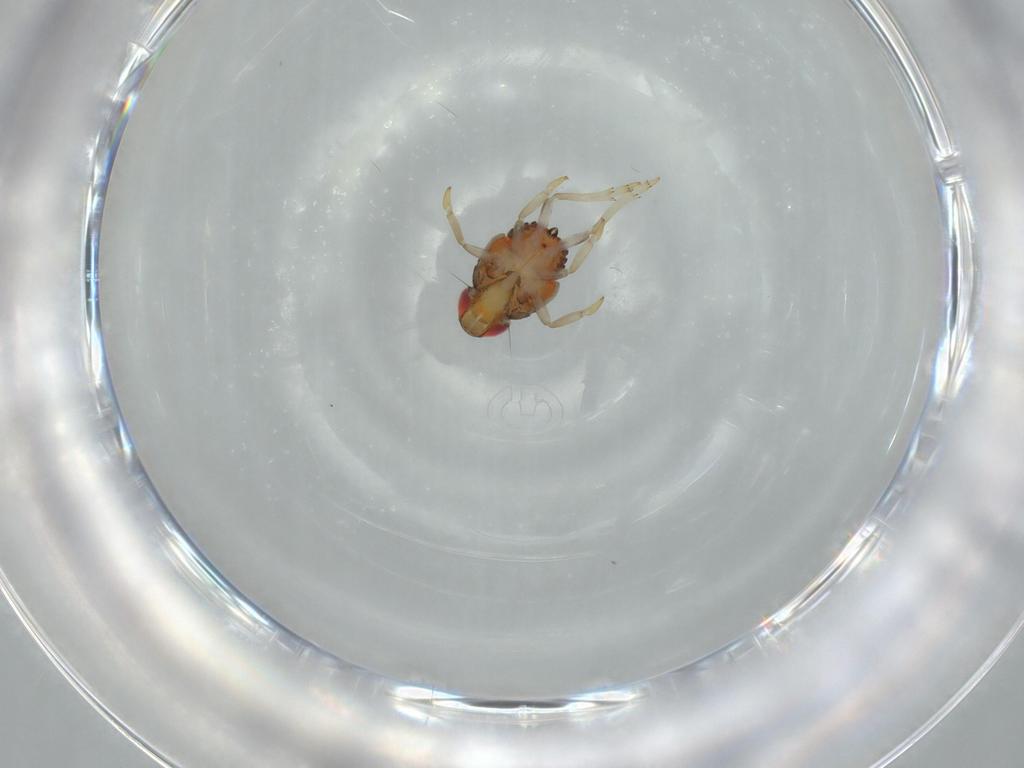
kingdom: Animalia
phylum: Arthropoda
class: Insecta
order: Hemiptera
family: Issidae
